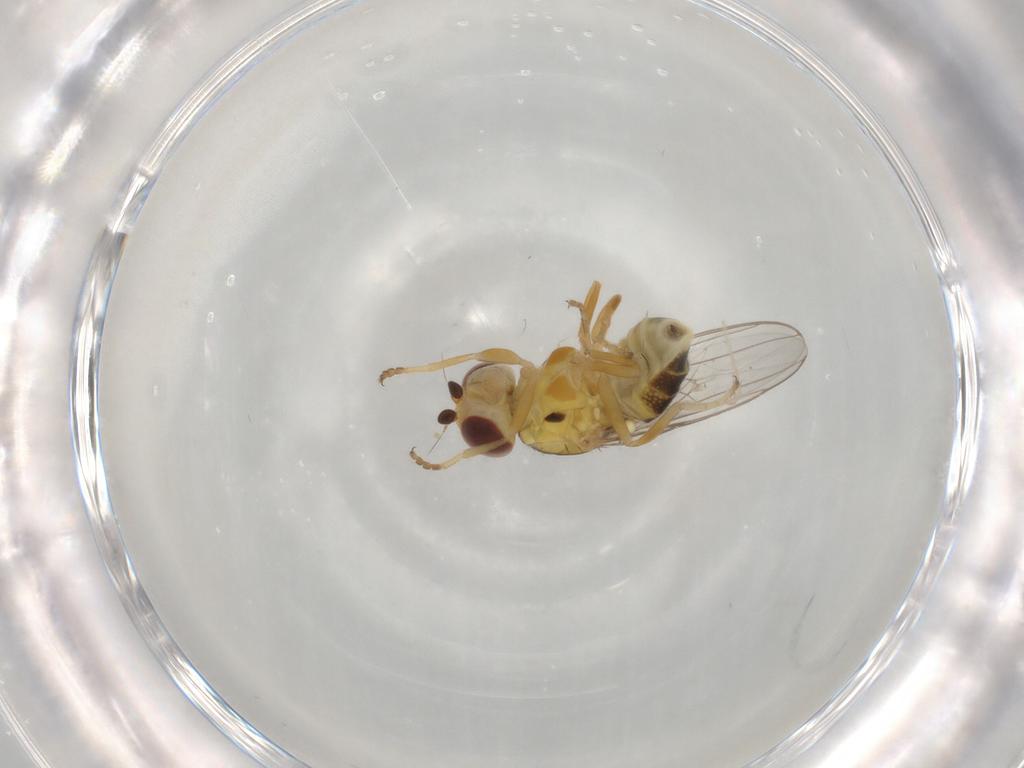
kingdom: Animalia
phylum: Arthropoda
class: Insecta
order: Diptera
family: Chloropidae
